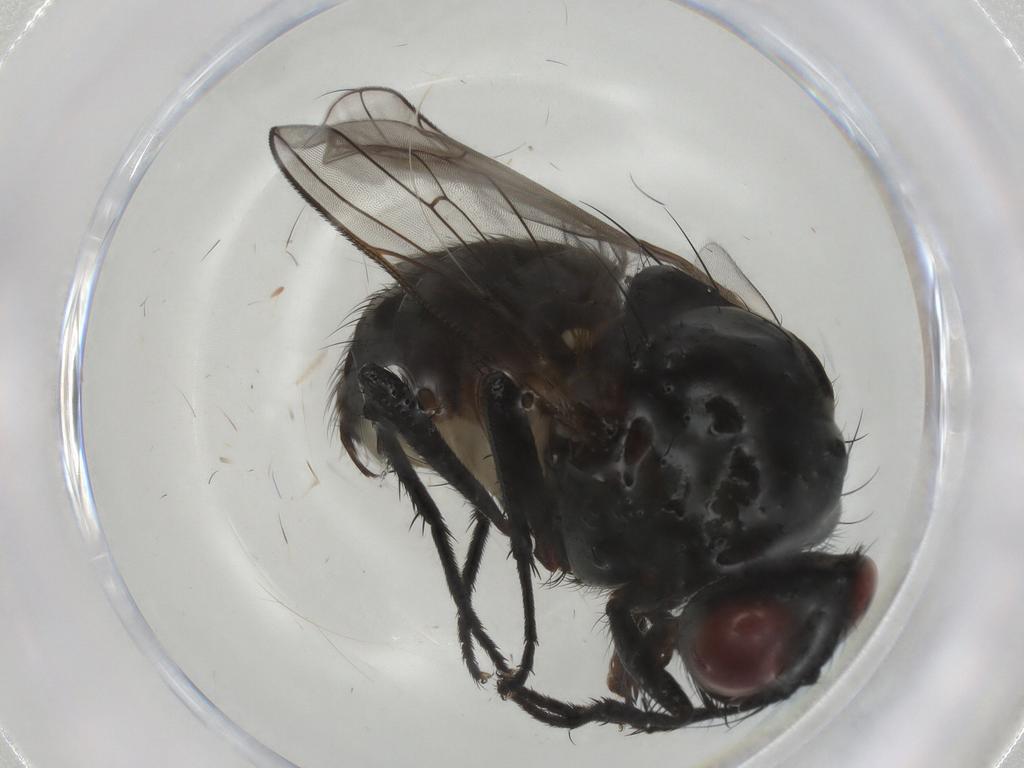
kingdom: Animalia
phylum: Arthropoda
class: Insecta
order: Diptera
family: Anthomyiidae
